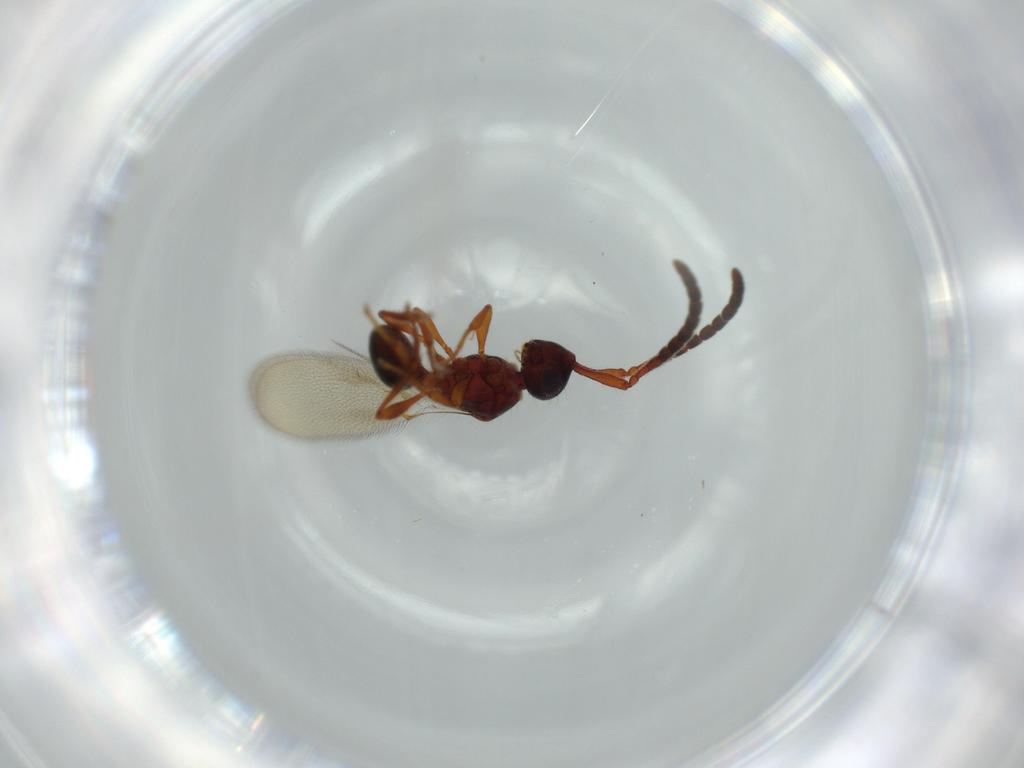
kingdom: Animalia
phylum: Arthropoda
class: Insecta
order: Hymenoptera
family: Diapriidae
